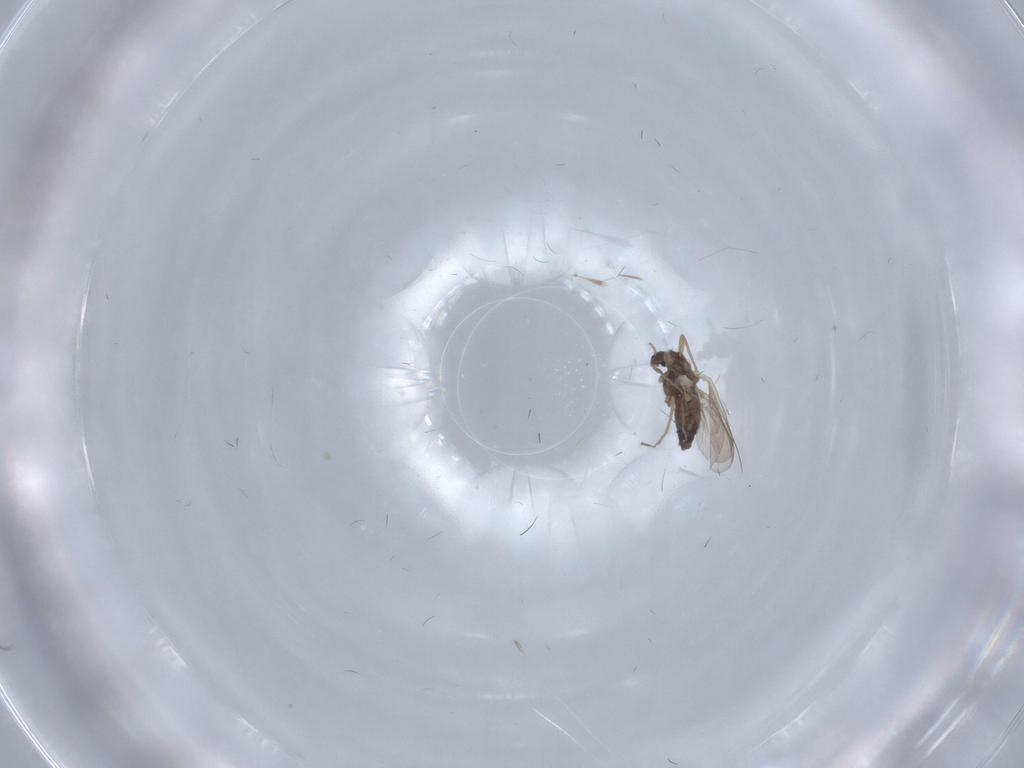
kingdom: Animalia
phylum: Arthropoda
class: Insecta
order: Diptera
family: Chironomidae
